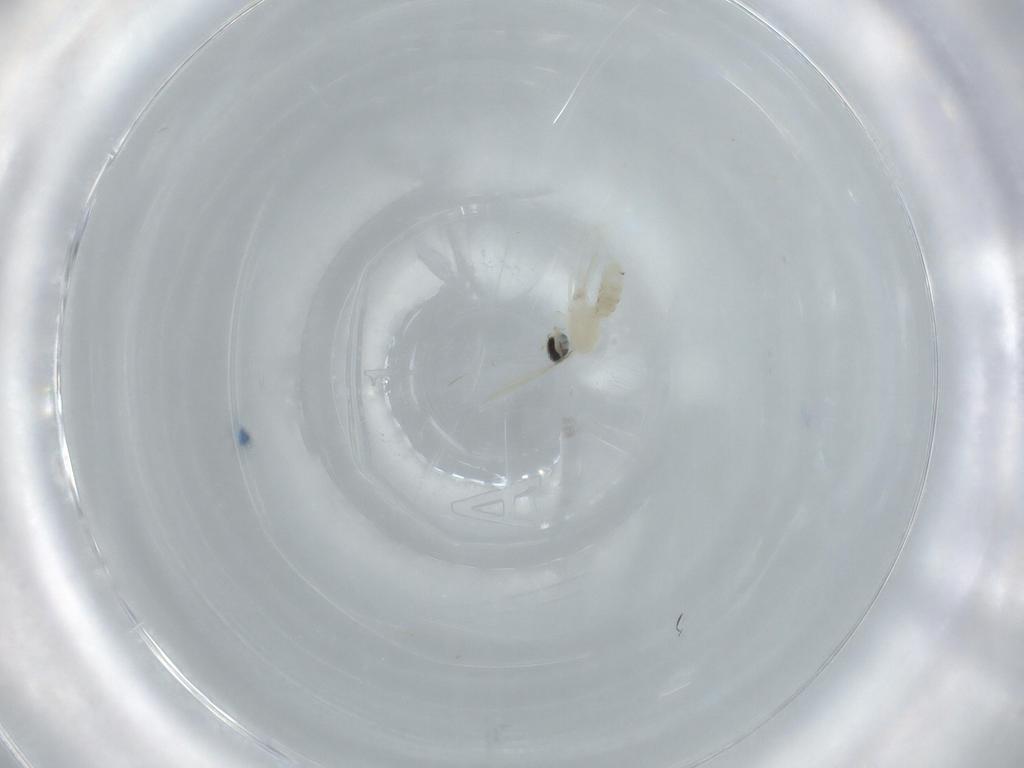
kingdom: Animalia
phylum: Arthropoda
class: Insecta
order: Diptera
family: Cecidomyiidae
